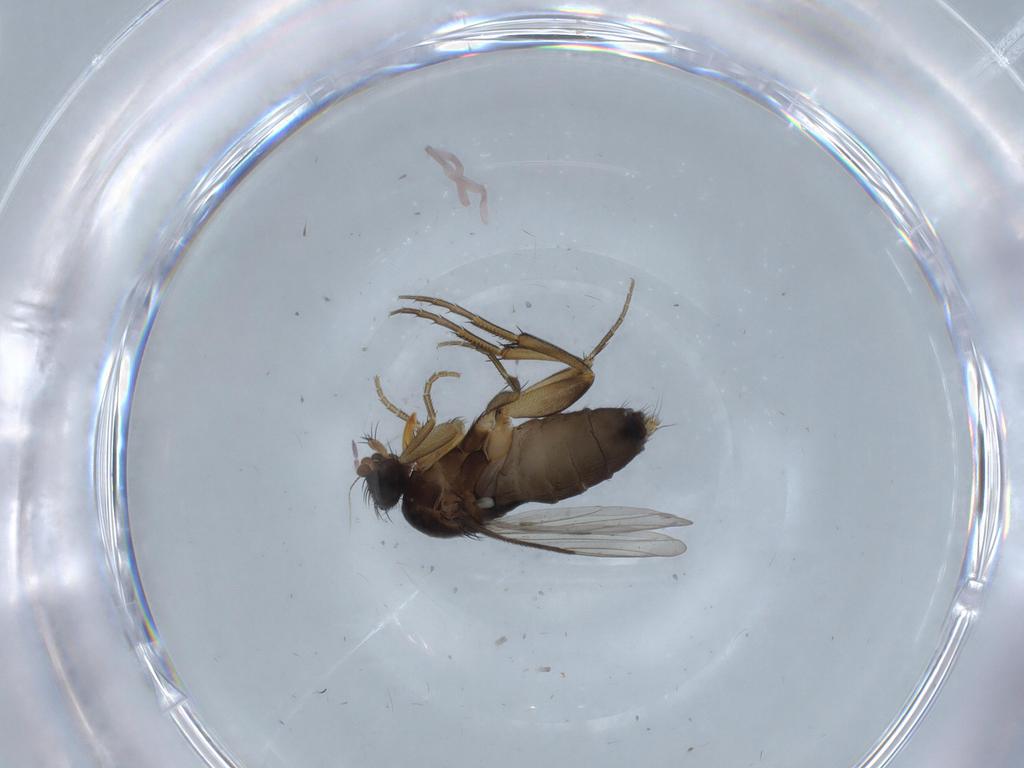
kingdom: Animalia
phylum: Arthropoda
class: Insecta
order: Diptera
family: Phoridae
